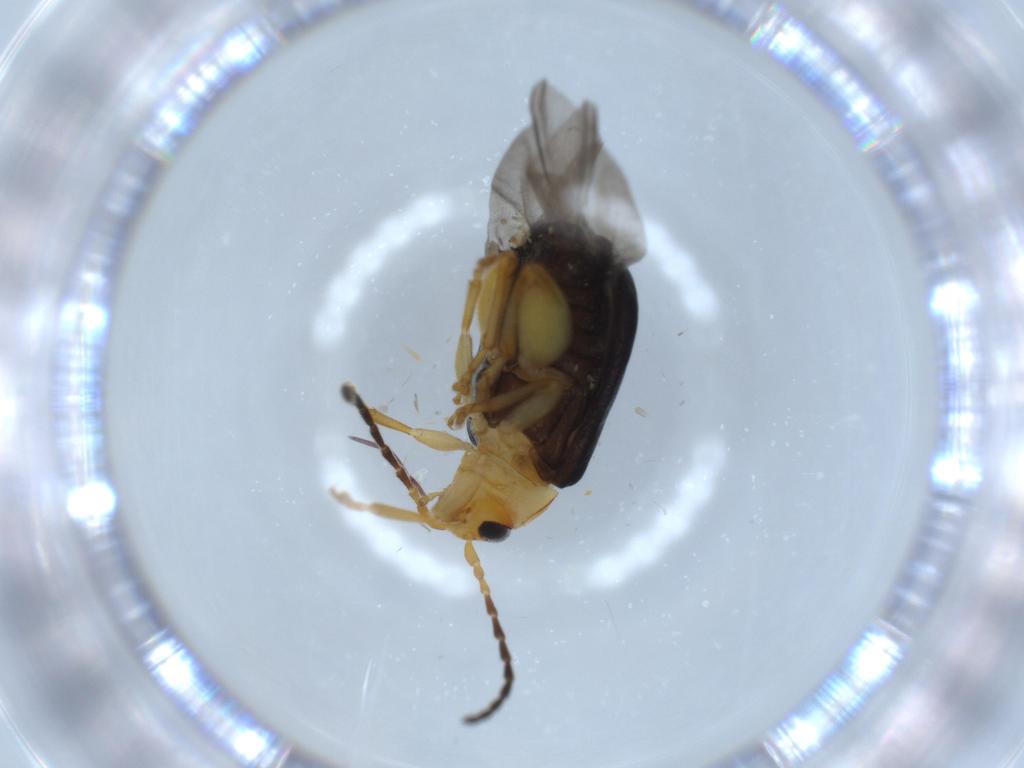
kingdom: Animalia
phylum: Arthropoda
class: Insecta
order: Coleoptera
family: Chrysomelidae
